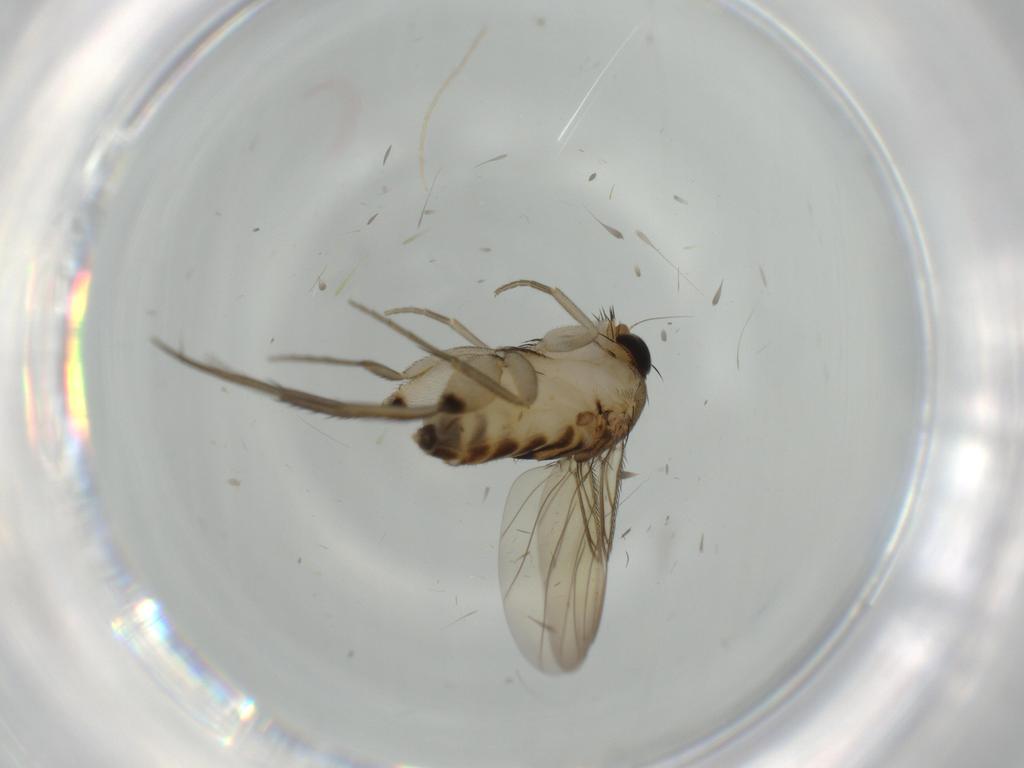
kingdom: Animalia
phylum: Arthropoda
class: Insecta
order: Diptera
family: Phoridae
